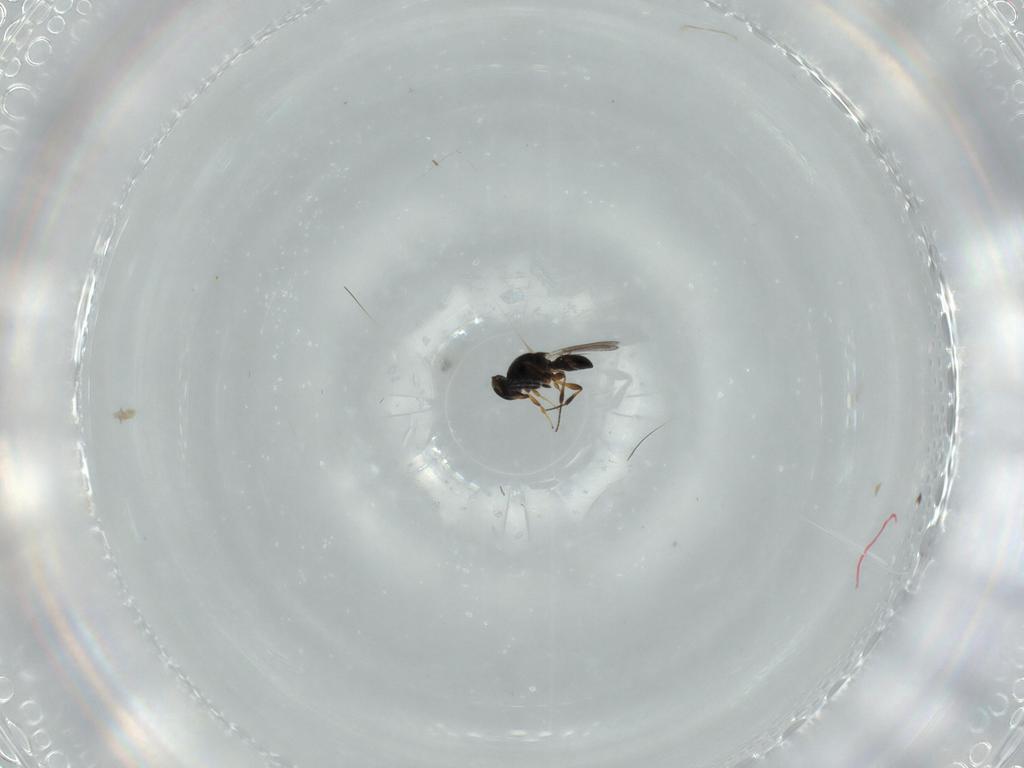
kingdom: Animalia
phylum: Arthropoda
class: Insecta
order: Hymenoptera
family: Platygastridae
